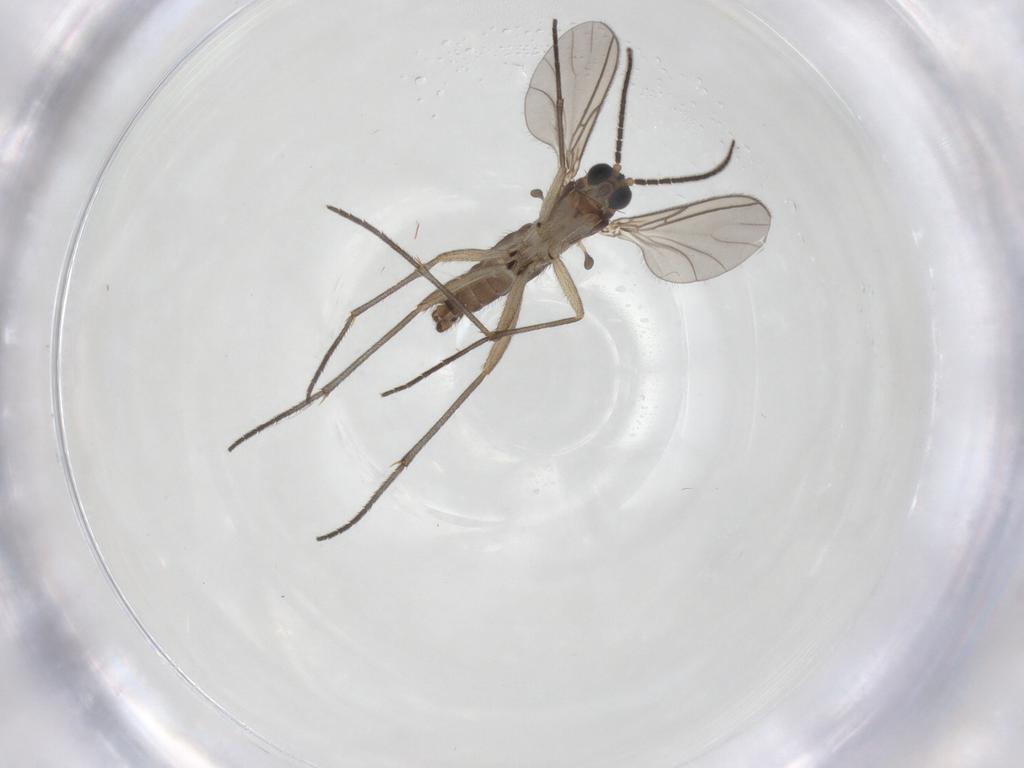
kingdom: Animalia
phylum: Arthropoda
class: Insecta
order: Diptera
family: Sciaridae
